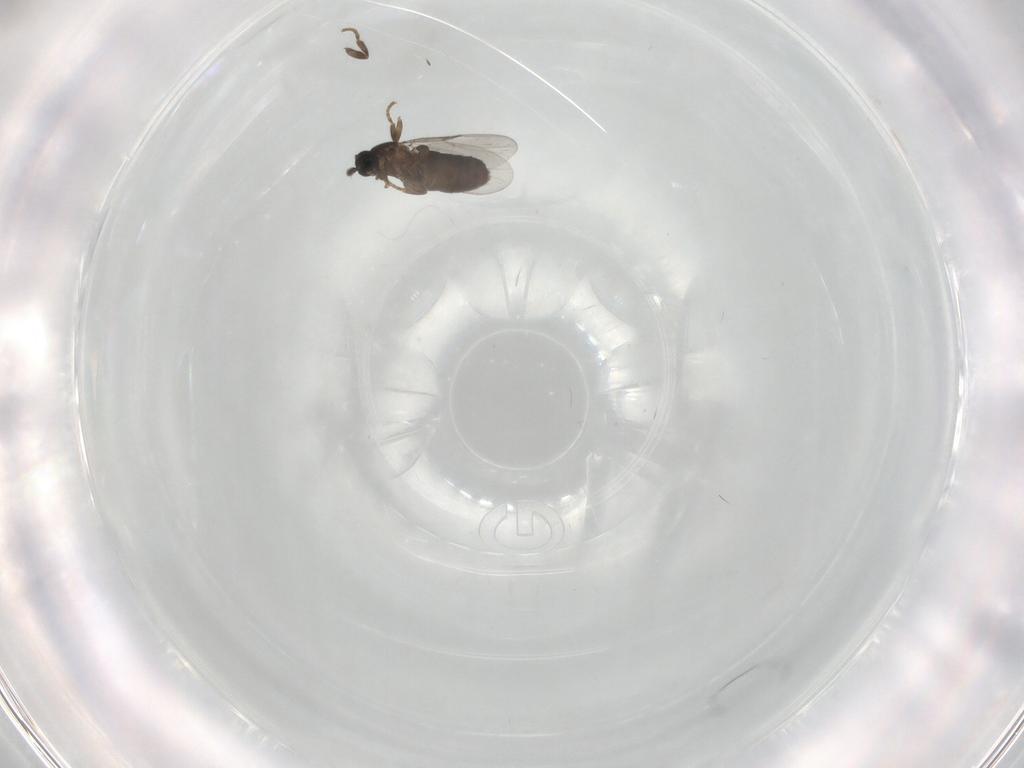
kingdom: Animalia
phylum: Arthropoda
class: Insecta
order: Diptera
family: Scatopsidae
